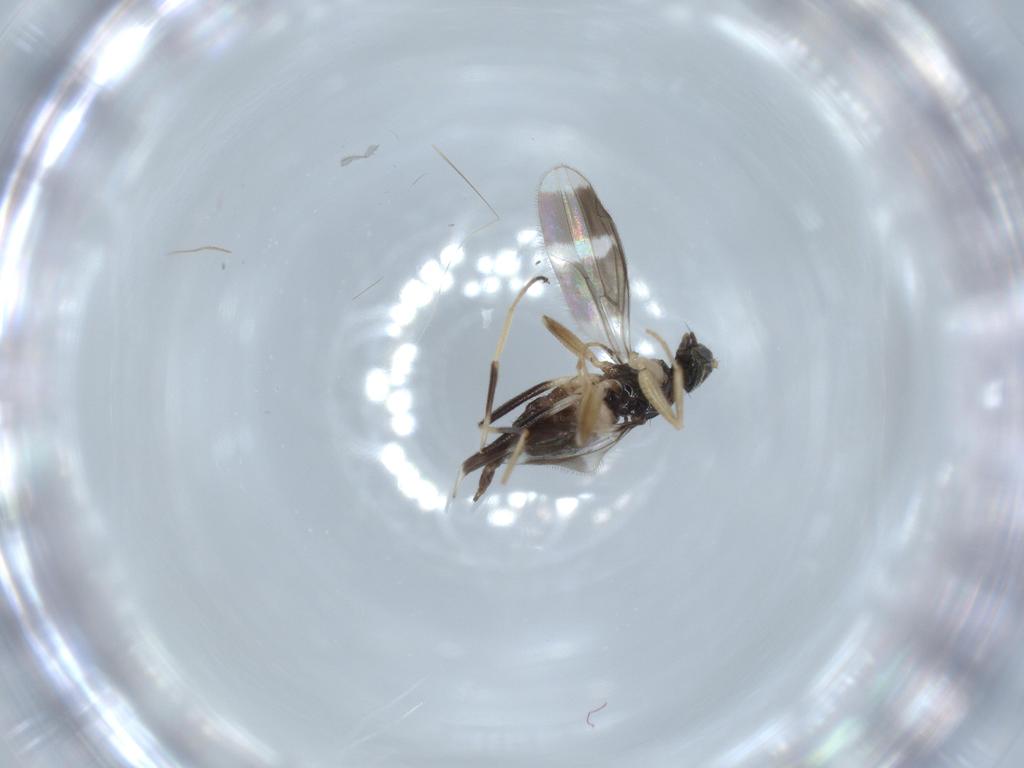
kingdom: Animalia
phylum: Arthropoda
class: Insecta
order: Diptera
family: Hybotidae
